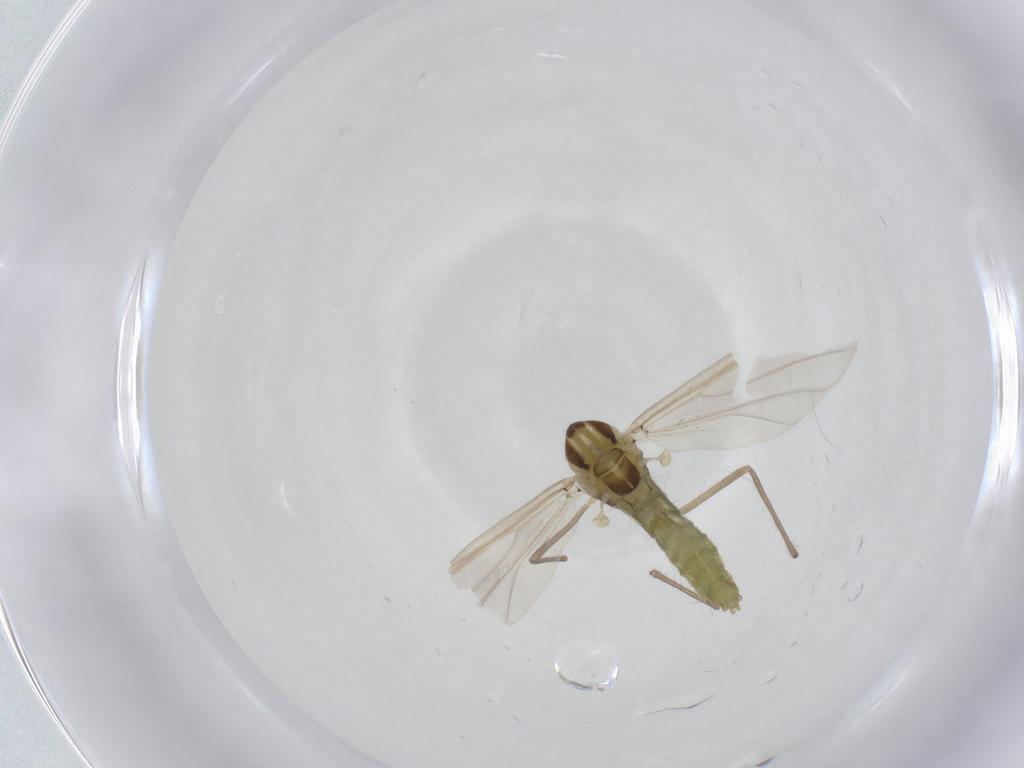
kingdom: Animalia
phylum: Arthropoda
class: Insecta
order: Diptera
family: Chironomidae
